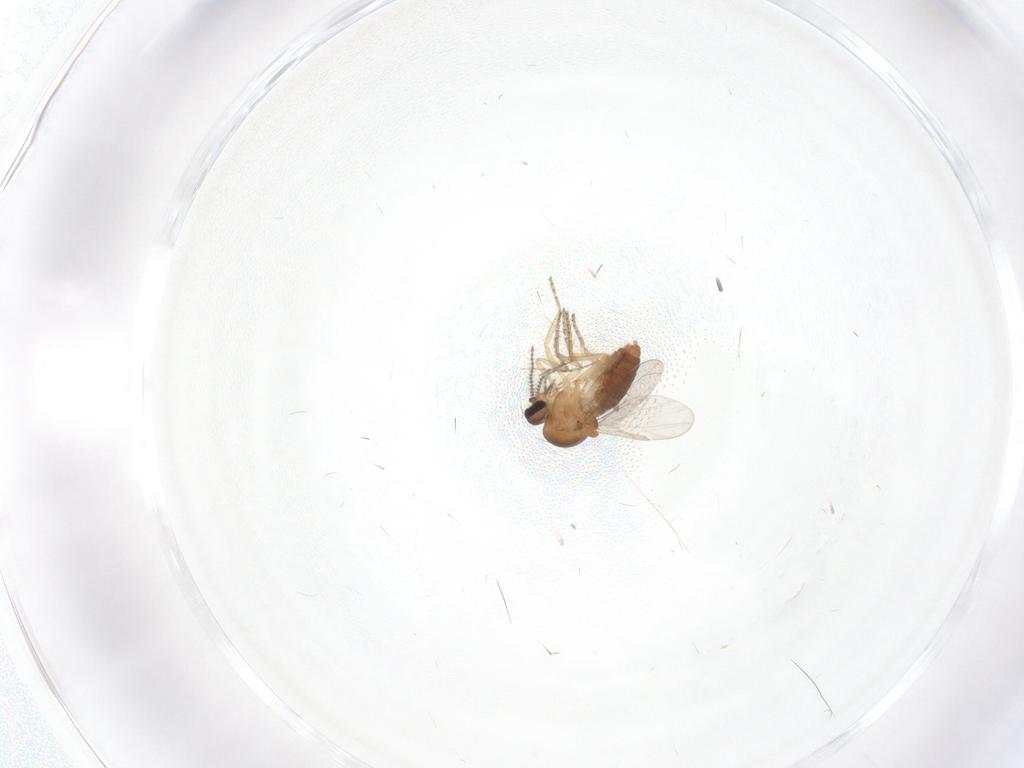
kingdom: Animalia
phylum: Arthropoda
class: Insecta
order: Diptera
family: Ceratopogonidae
